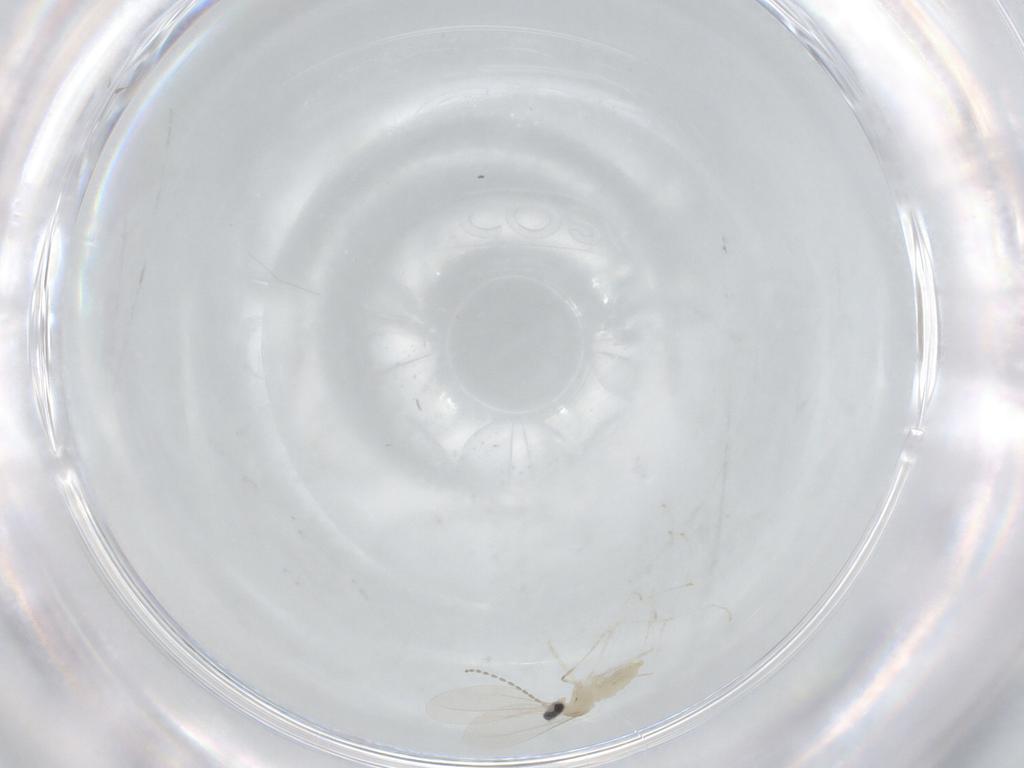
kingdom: Animalia
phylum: Arthropoda
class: Insecta
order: Diptera
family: Cecidomyiidae
